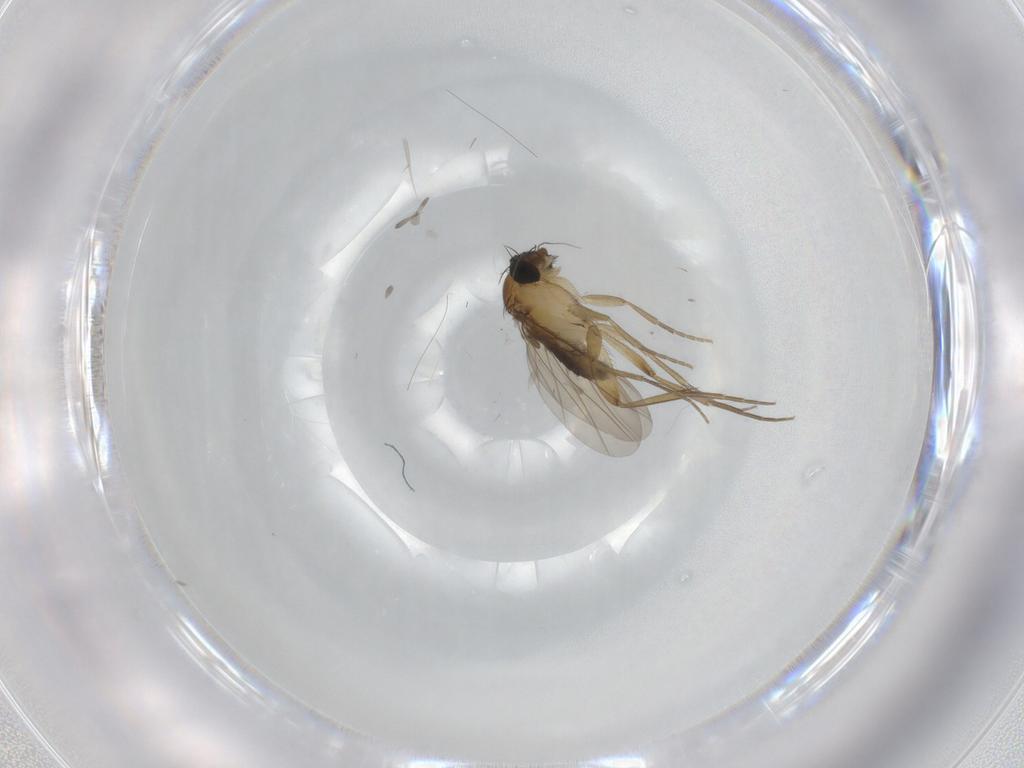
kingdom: Animalia
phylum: Arthropoda
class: Insecta
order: Diptera
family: Phoridae
